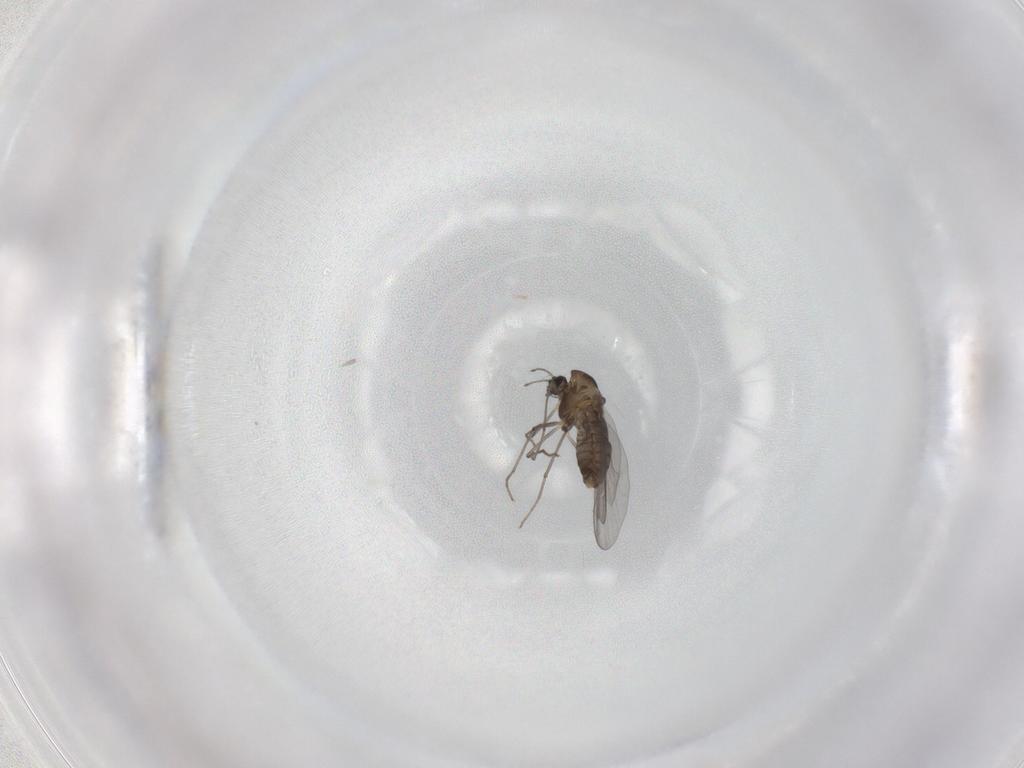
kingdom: Animalia
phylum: Arthropoda
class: Insecta
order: Diptera
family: Chironomidae
